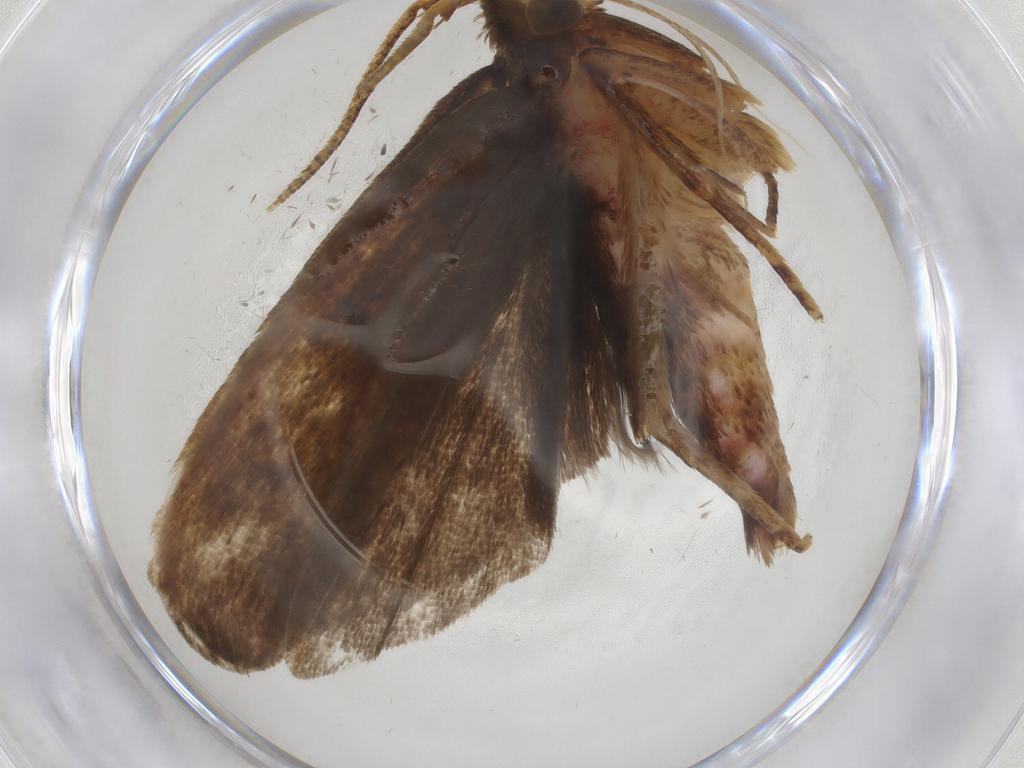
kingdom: Animalia
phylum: Arthropoda
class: Insecta
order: Lepidoptera
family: Autostichidae
